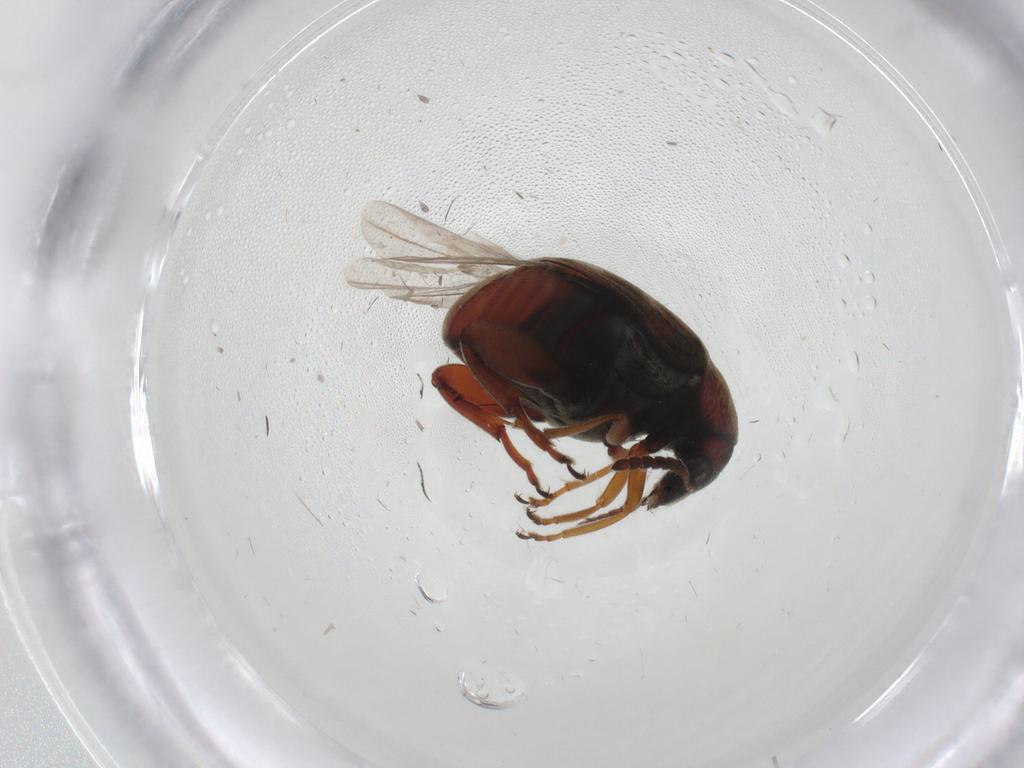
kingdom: Animalia
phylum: Arthropoda
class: Insecta
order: Coleoptera
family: Chrysomelidae
